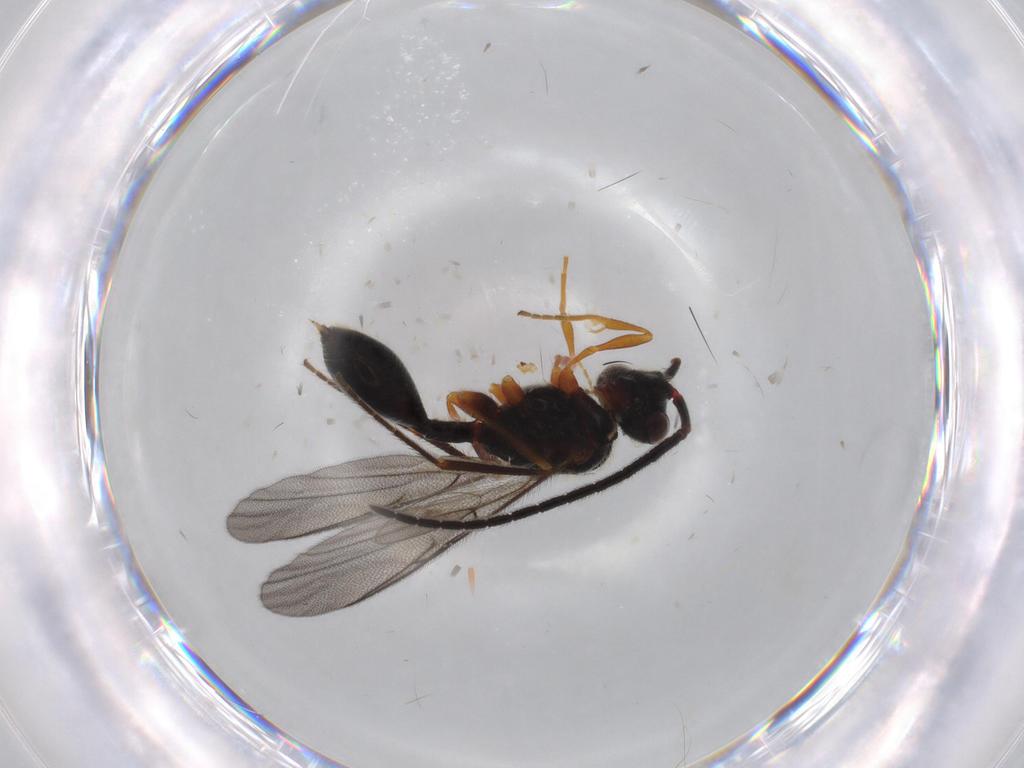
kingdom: Animalia
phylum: Arthropoda
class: Insecta
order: Hymenoptera
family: Diapriidae
